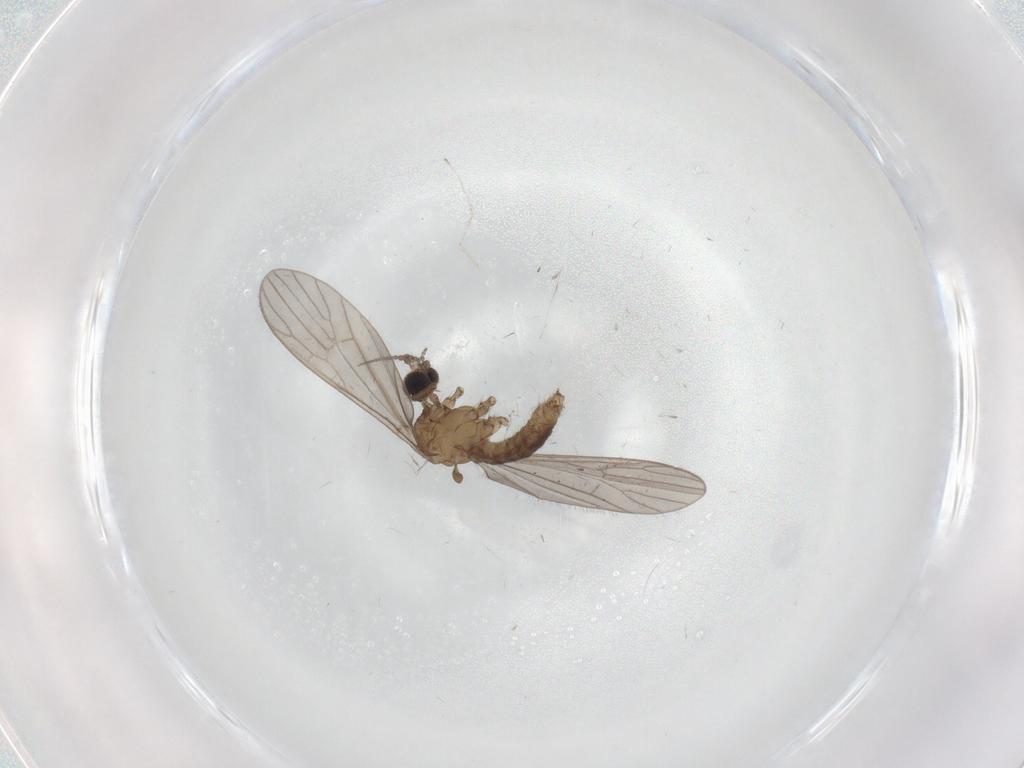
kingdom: Animalia
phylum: Arthropoda
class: Insecta
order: Diptera
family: Limoniidae
